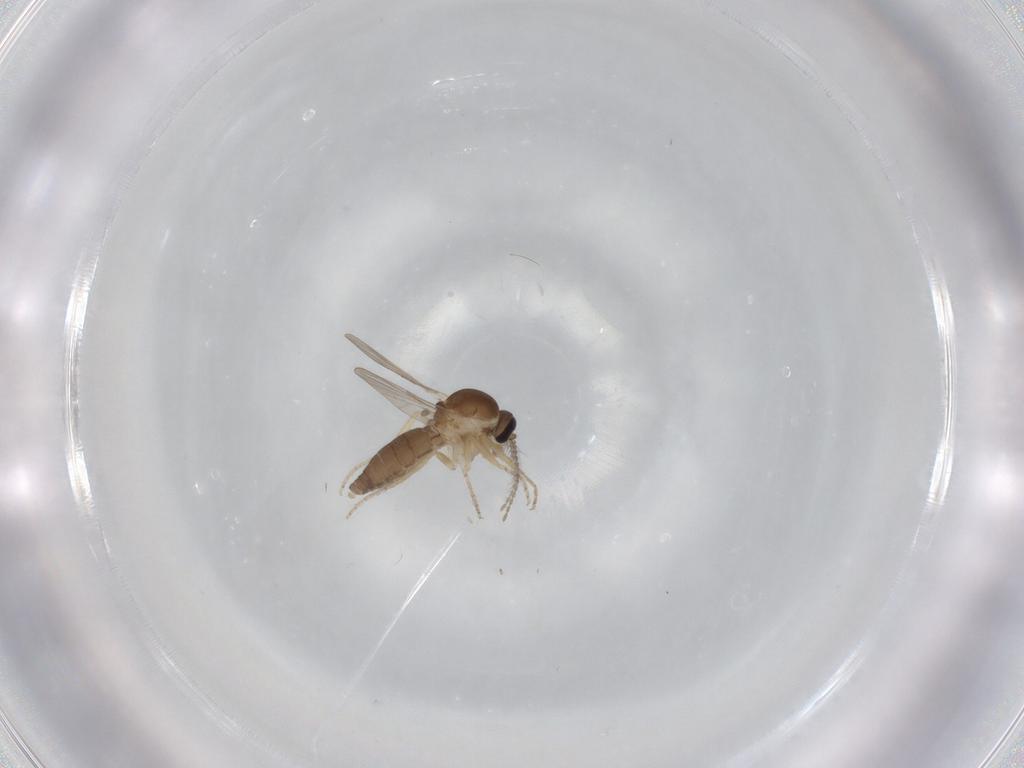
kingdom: Animalia
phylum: Arthropoda
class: Insecta
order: Diptera
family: Ceratopogonidae
